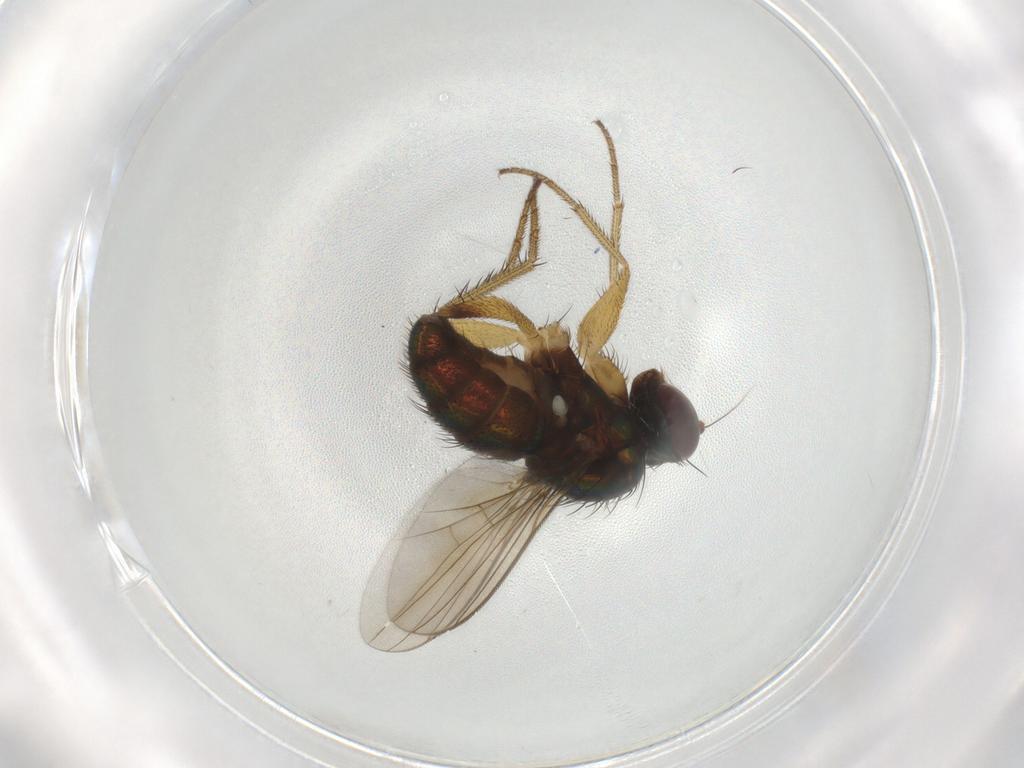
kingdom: Animalia
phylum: Arthropoda
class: Insecta
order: Diptera
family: Dolichopodidae
